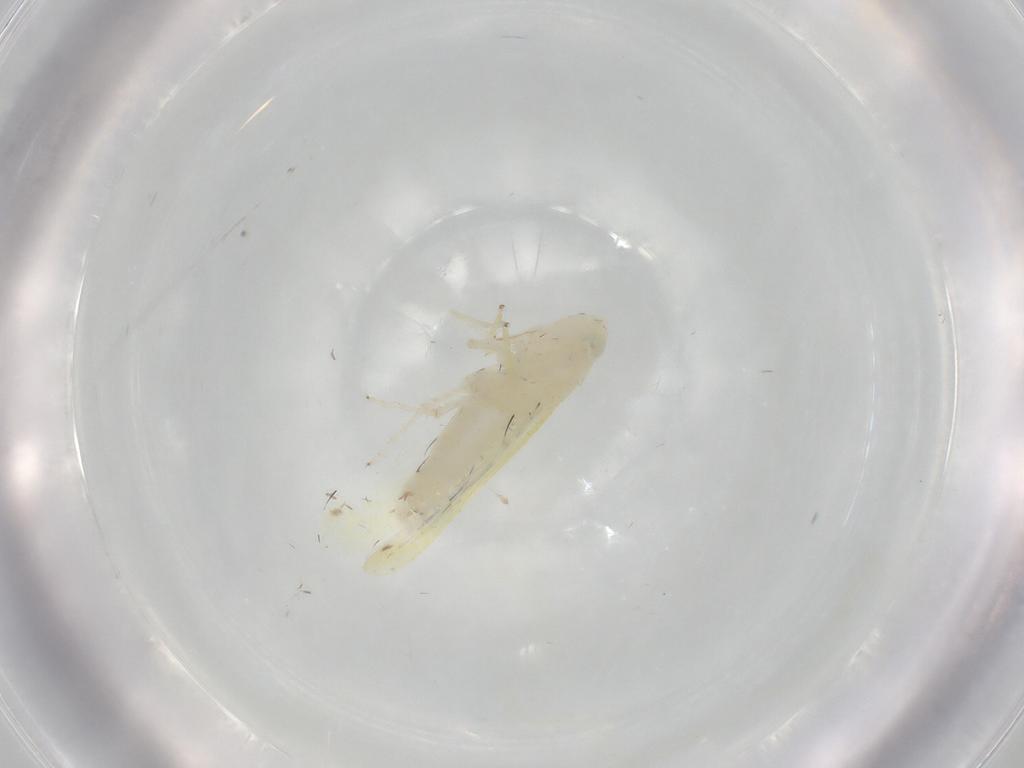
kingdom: Animalia
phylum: Arthropoda
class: Insecta
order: Hemiptera
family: Cicadellidae
